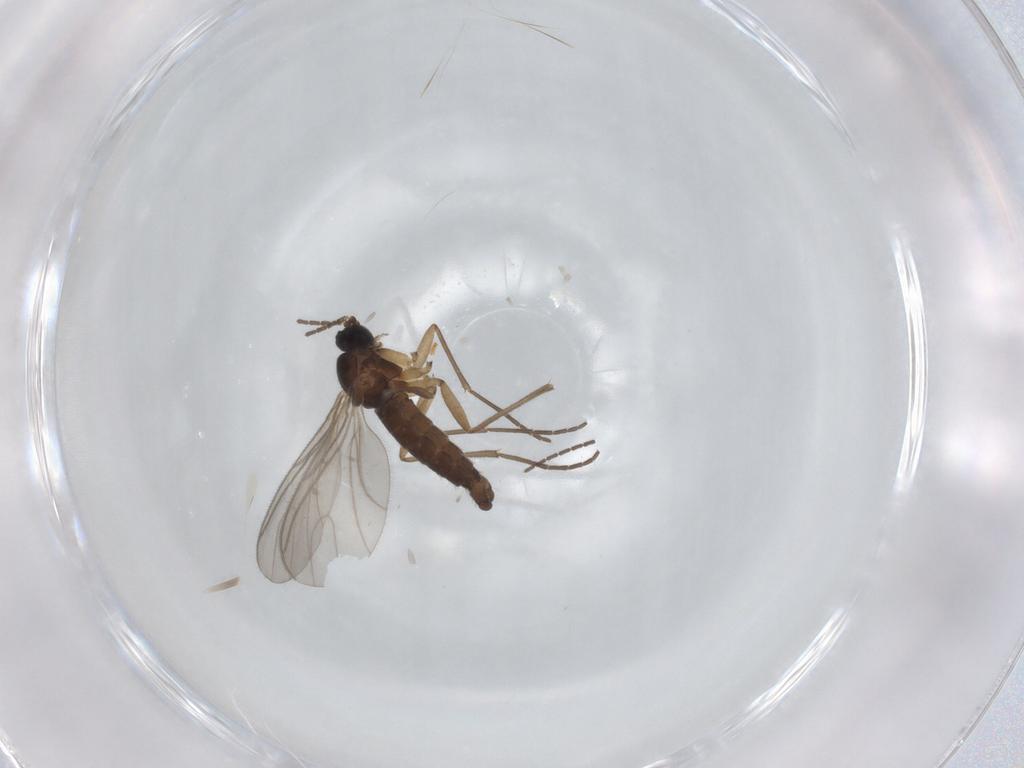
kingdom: Animalia
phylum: Arthropoda
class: Insecta
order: Diptera
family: Sciaridae
